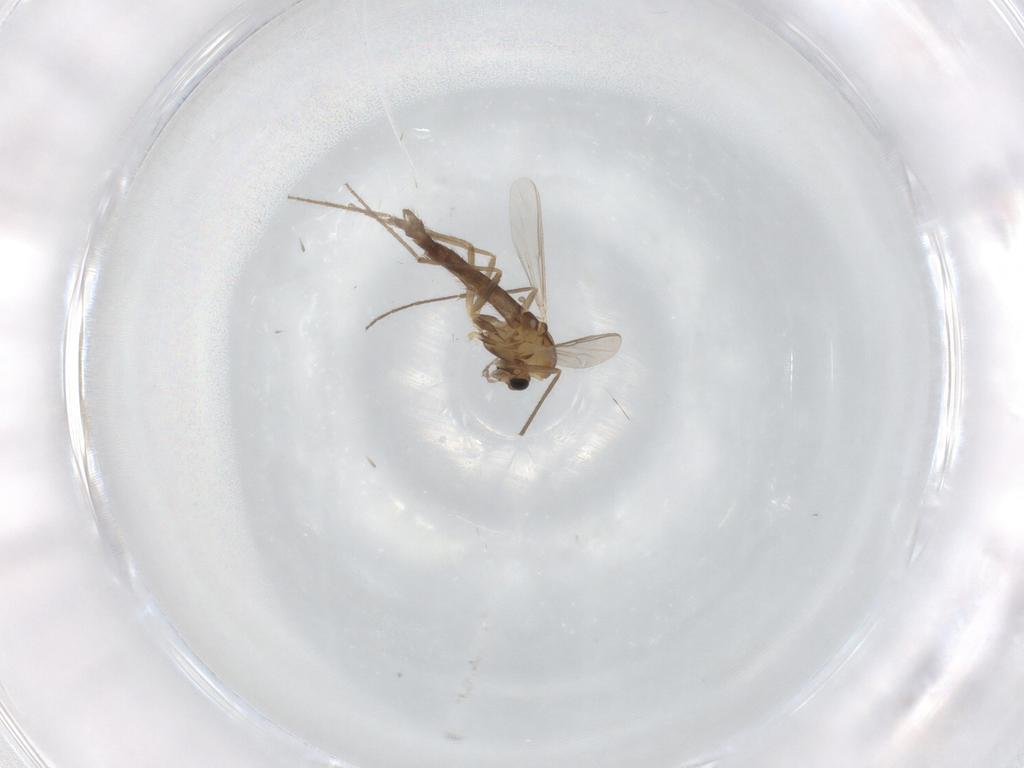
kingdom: Animalia
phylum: Arthropoda
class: Insecta
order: Diptera
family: Chironomidae
